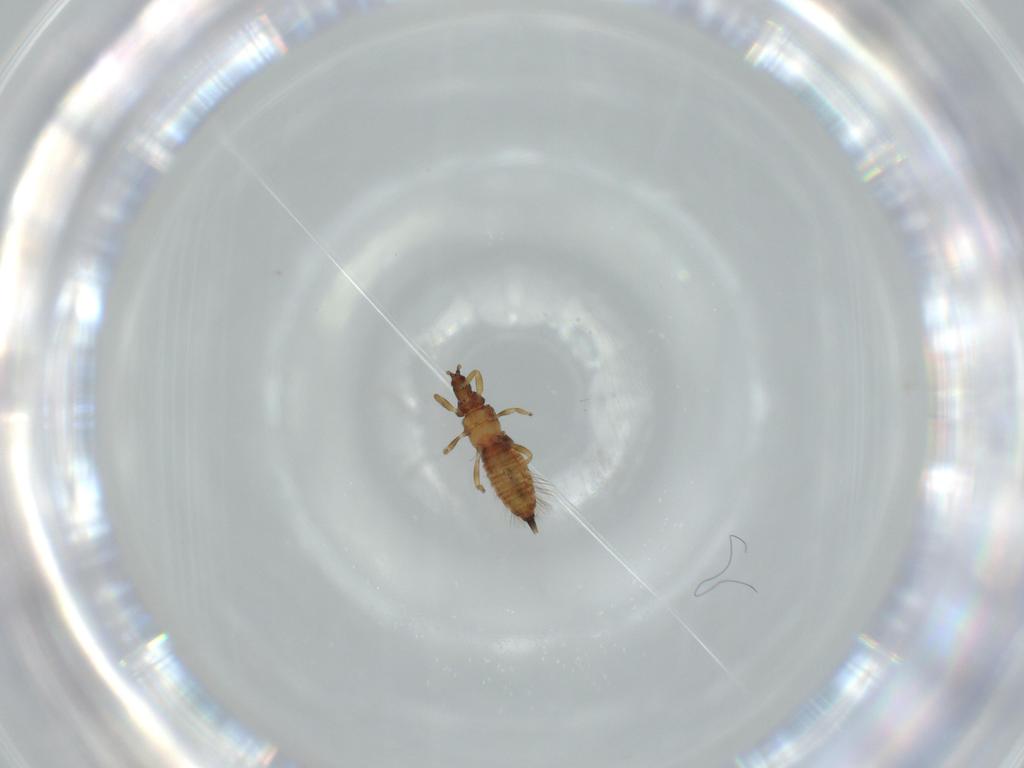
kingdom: Animalia
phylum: Arthropoda
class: Insecta
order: Thysanoptera
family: Phlaeothripidae
